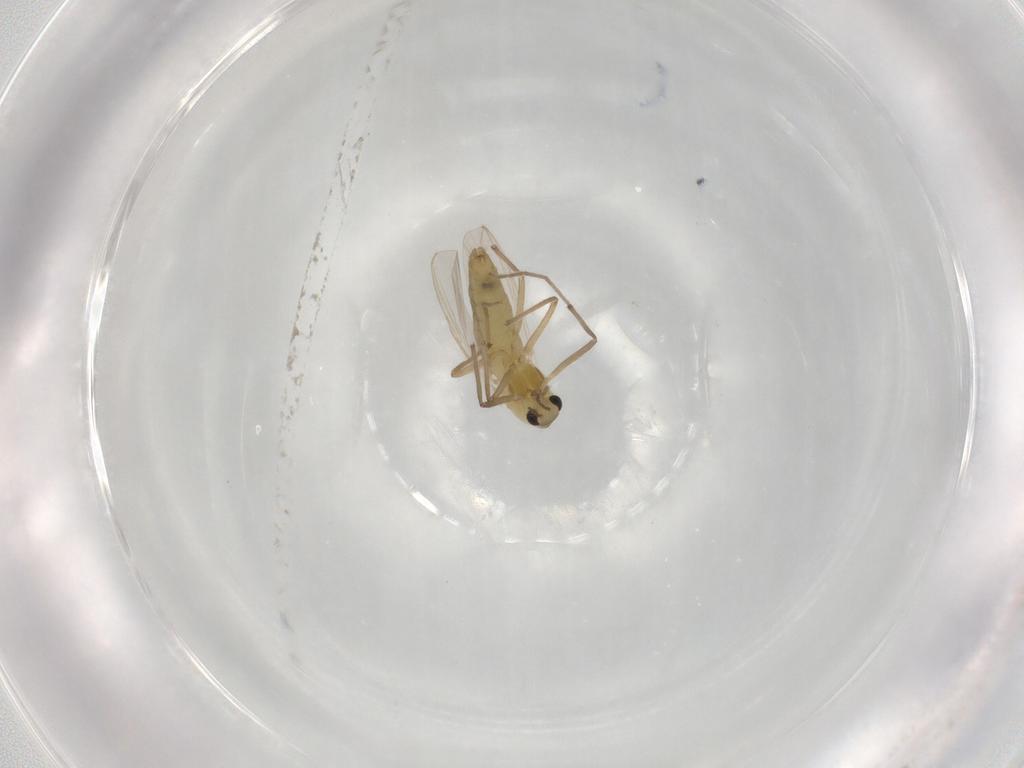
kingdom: Animalia
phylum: Arthropoda
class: Insecta
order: Diptera
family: Chironomidae
